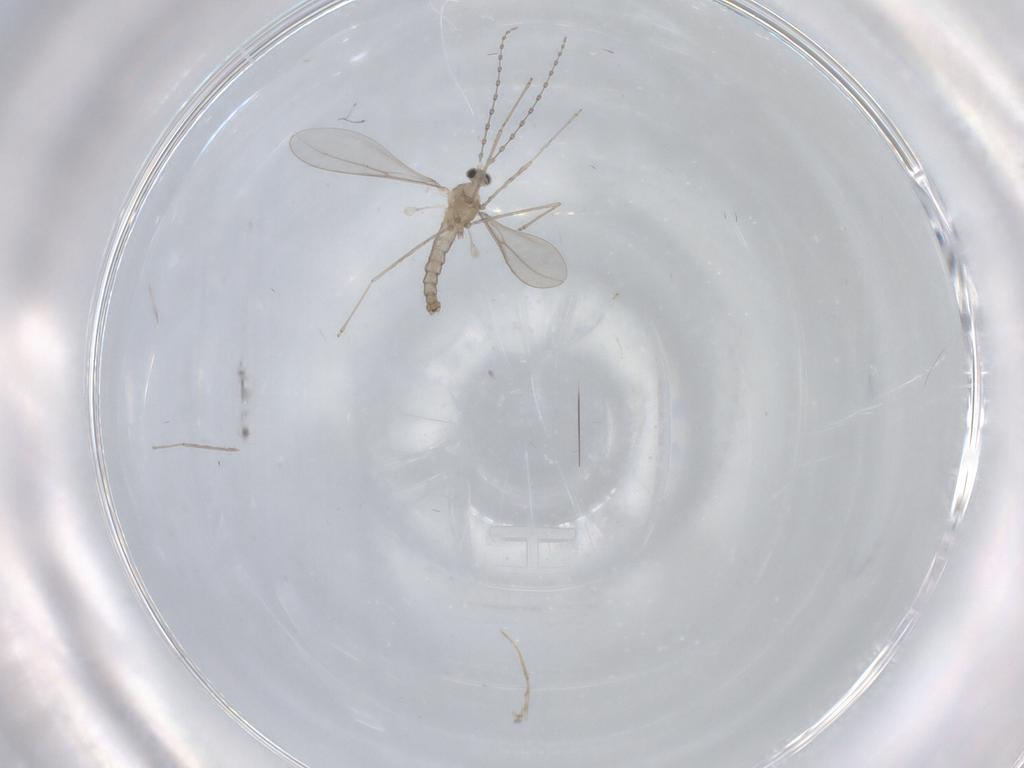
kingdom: Animalia
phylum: Arthropoda
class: Insecta
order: Diptera
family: Cecidomyiidae
